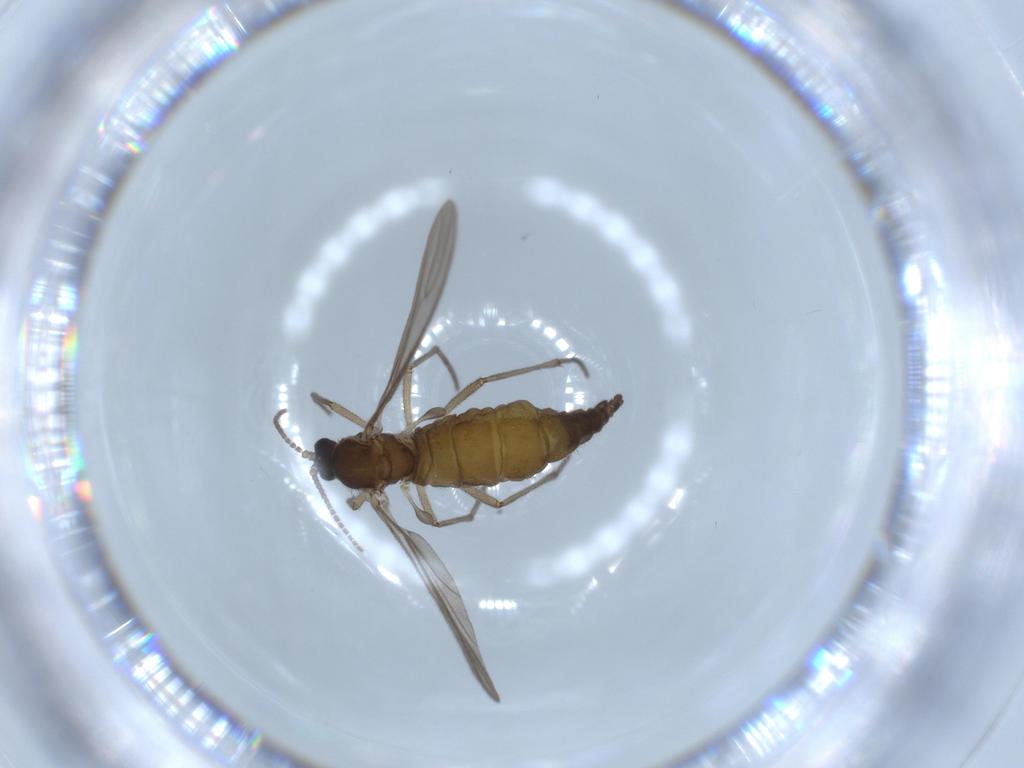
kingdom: Animalia
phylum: Arthropoda
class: Insecta
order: Diptera
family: Sciaridae
